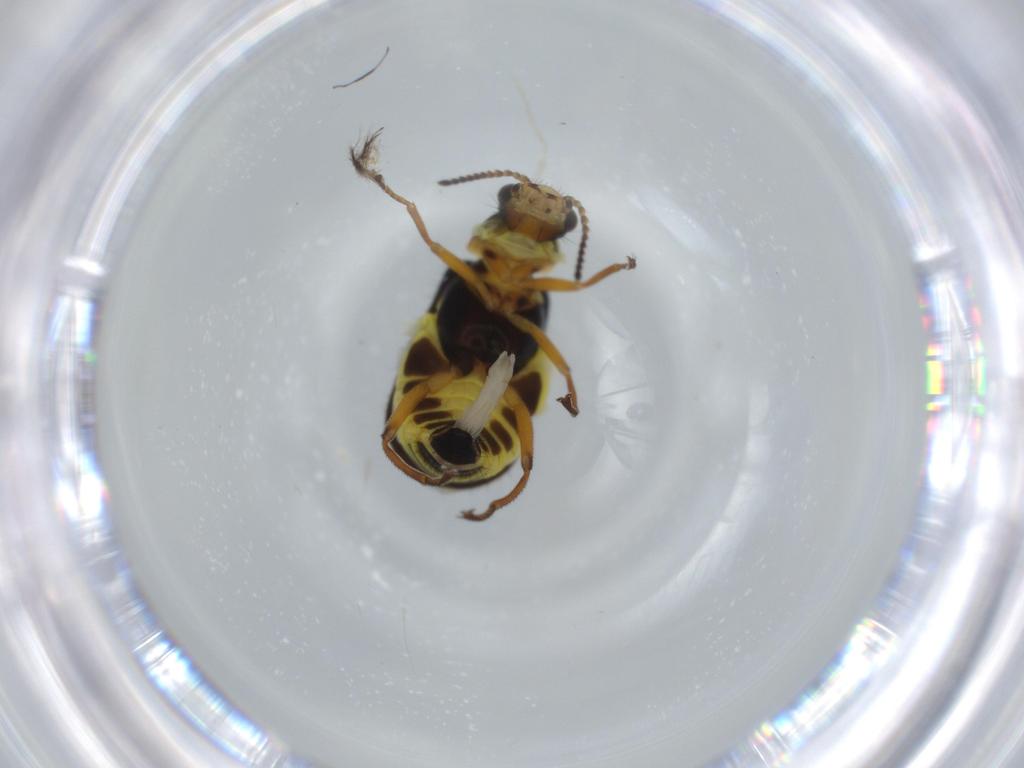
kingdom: Animalia
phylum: Arthropoda
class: Insecta
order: Coleoptera
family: Melyridae
